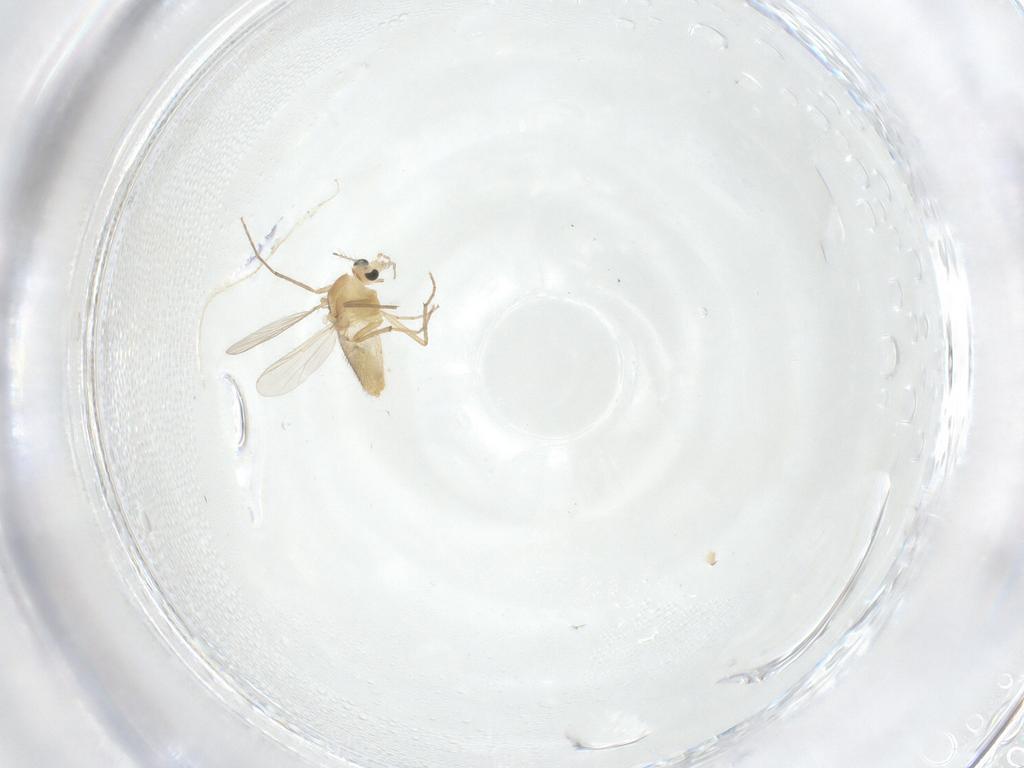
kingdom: Animalia
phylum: Arthropoda
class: Insecta
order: Diptera
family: Chironomidae
